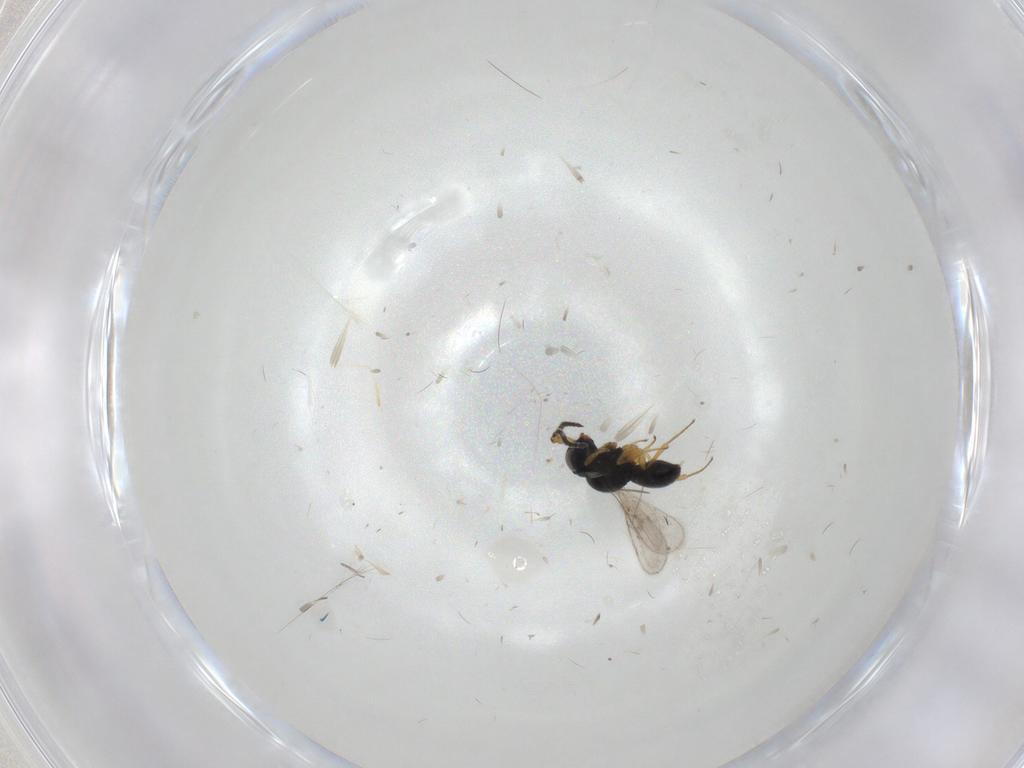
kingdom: Animalia
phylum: Arthropoda
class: Insecta
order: Hymenoptera
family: Scelionidae
